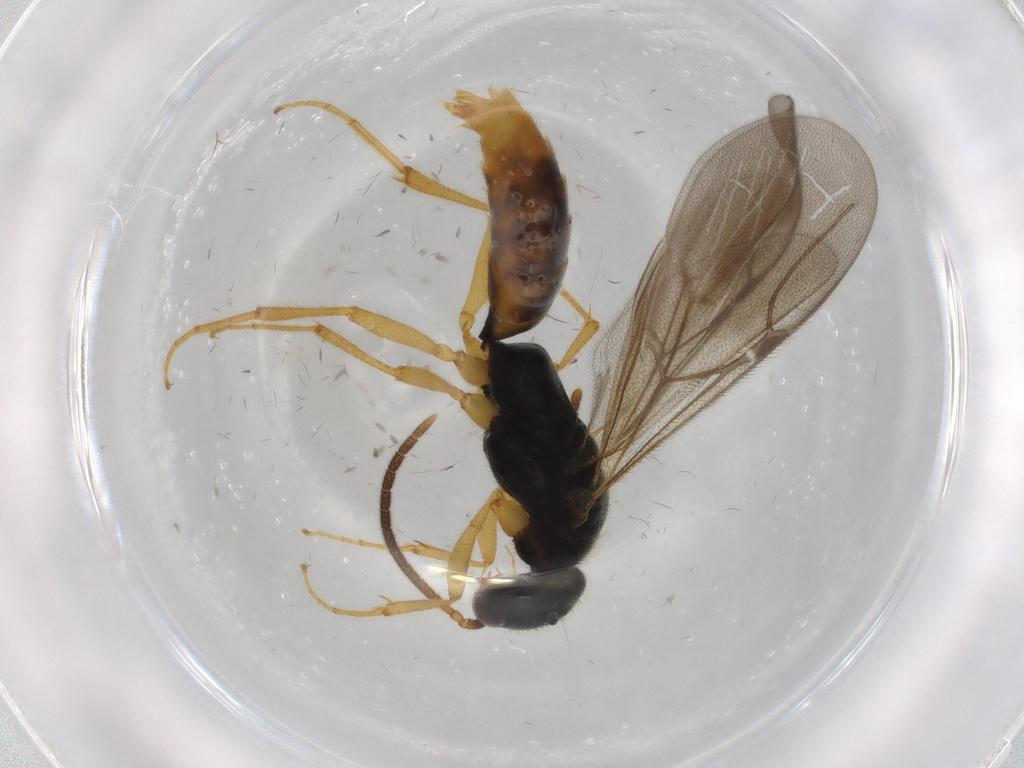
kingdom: Animalia
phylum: Arthropoda
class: Insecta
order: Hymenoptera
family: Bethylidae
